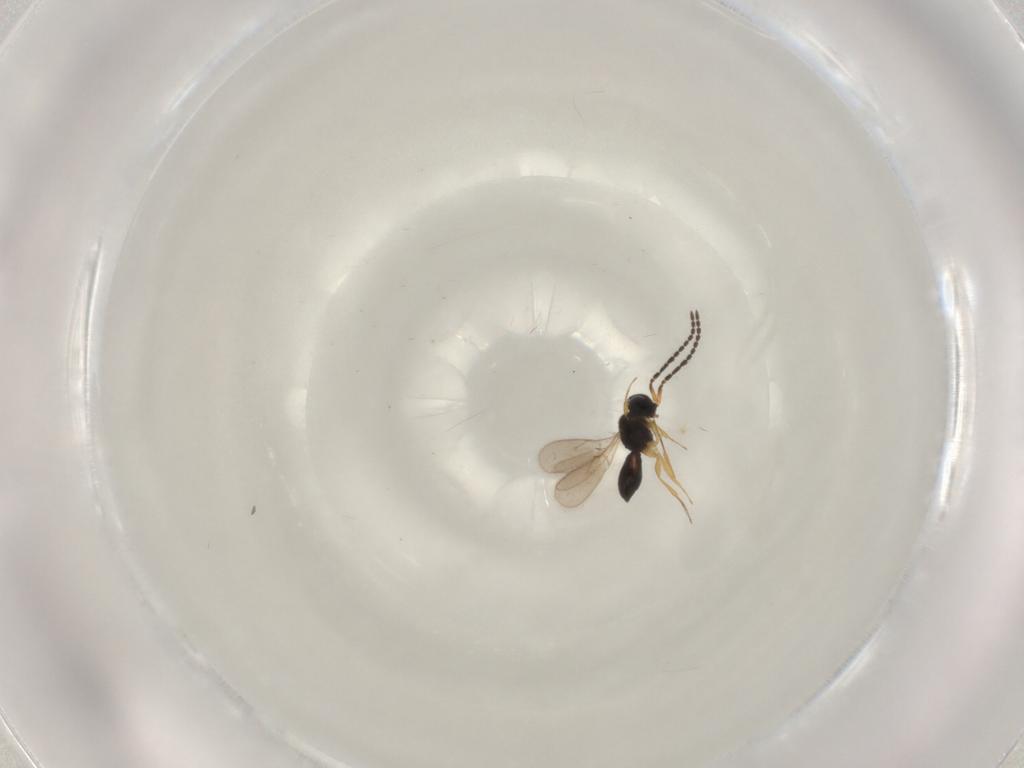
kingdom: Animalia
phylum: Arthropoda
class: Insecta
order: Hymenoptera
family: Scelionidae
